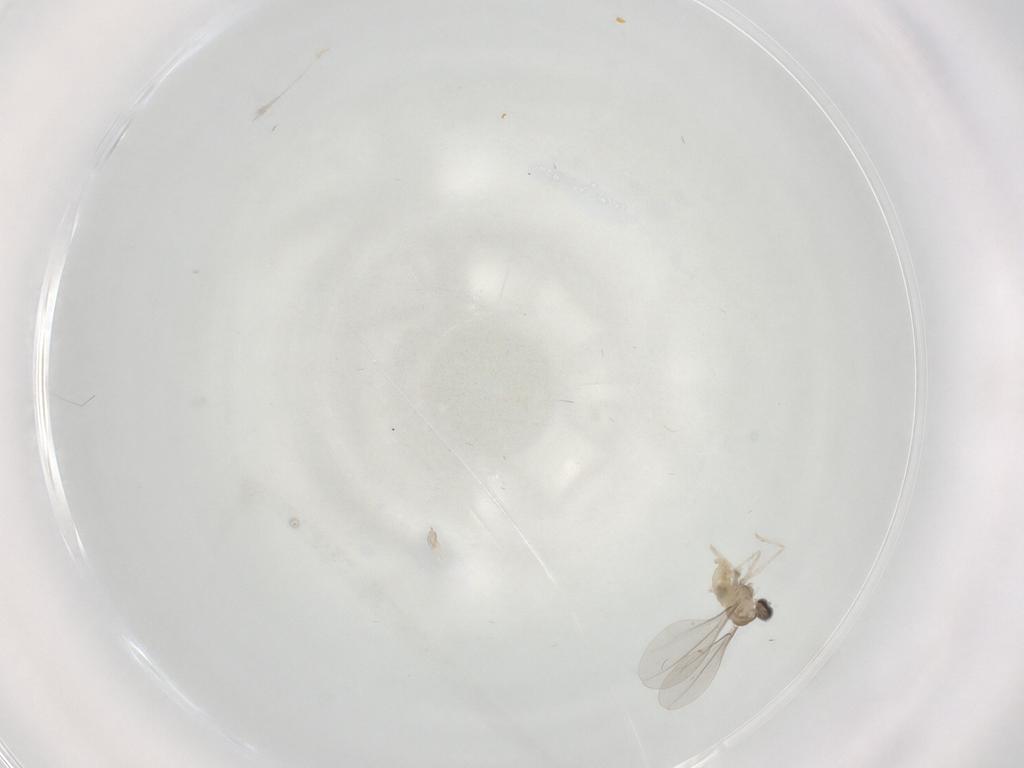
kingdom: Animalia
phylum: Arthropoda
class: Insecta
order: Diptera
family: Cecidomyiidae
